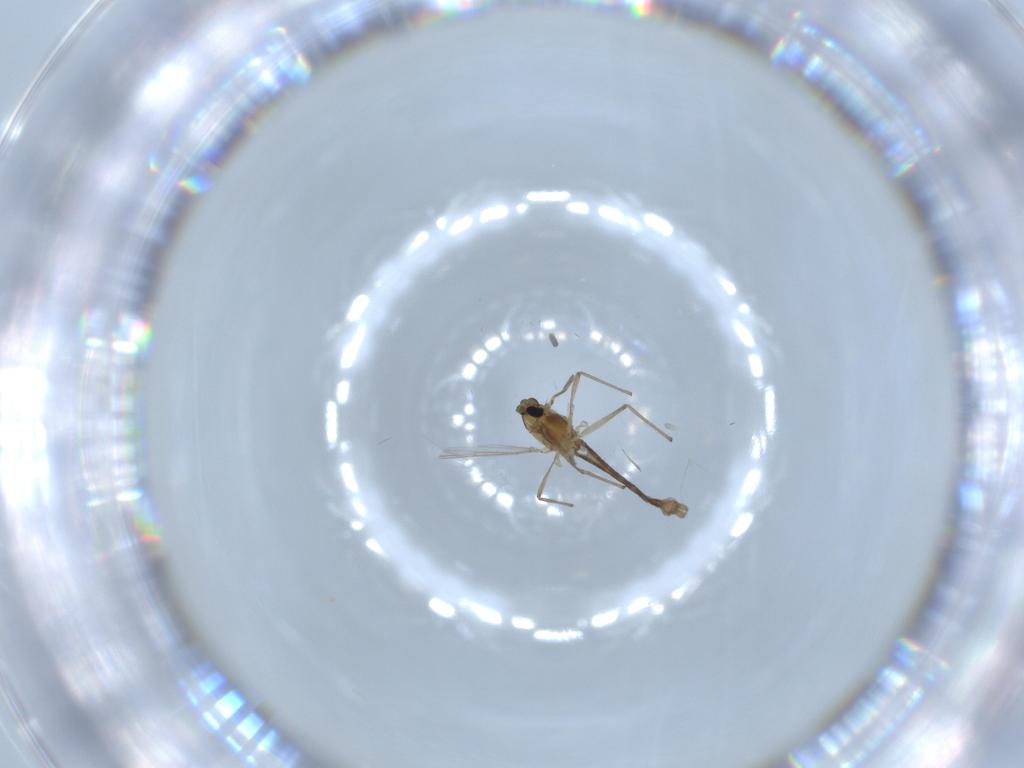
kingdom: Animalia
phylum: Arthropoda
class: Insecta
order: Diptera
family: Chironomidae
